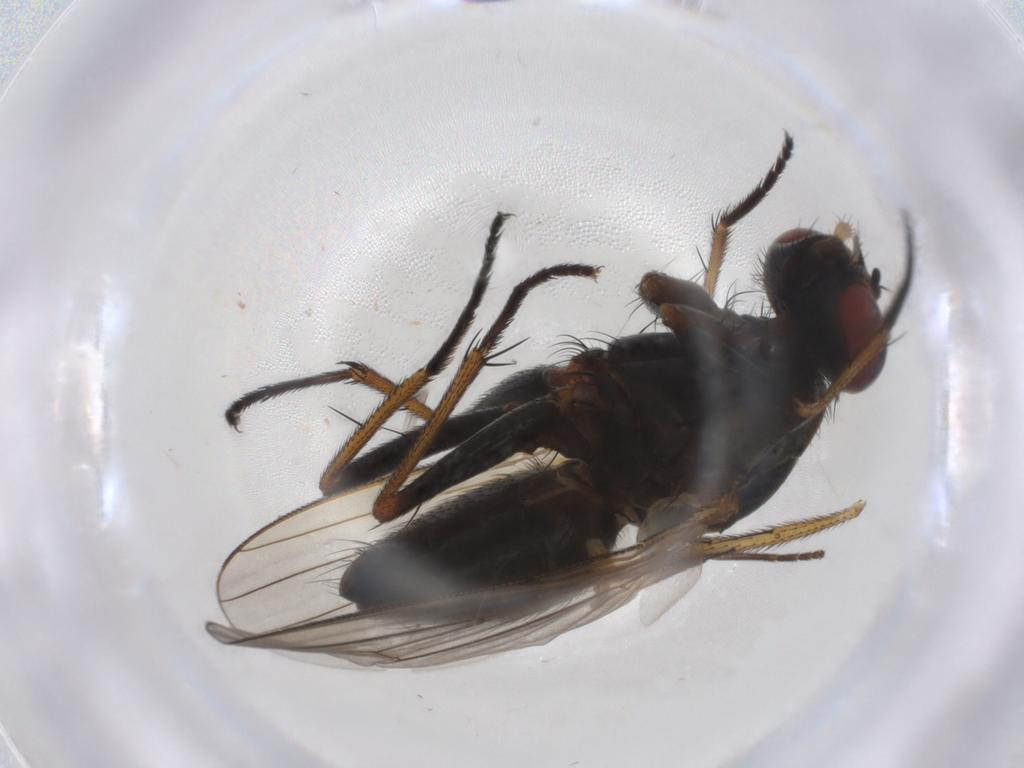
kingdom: Animalia
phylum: Arthropoda
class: Insecta
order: Diptera
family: Muscidae
